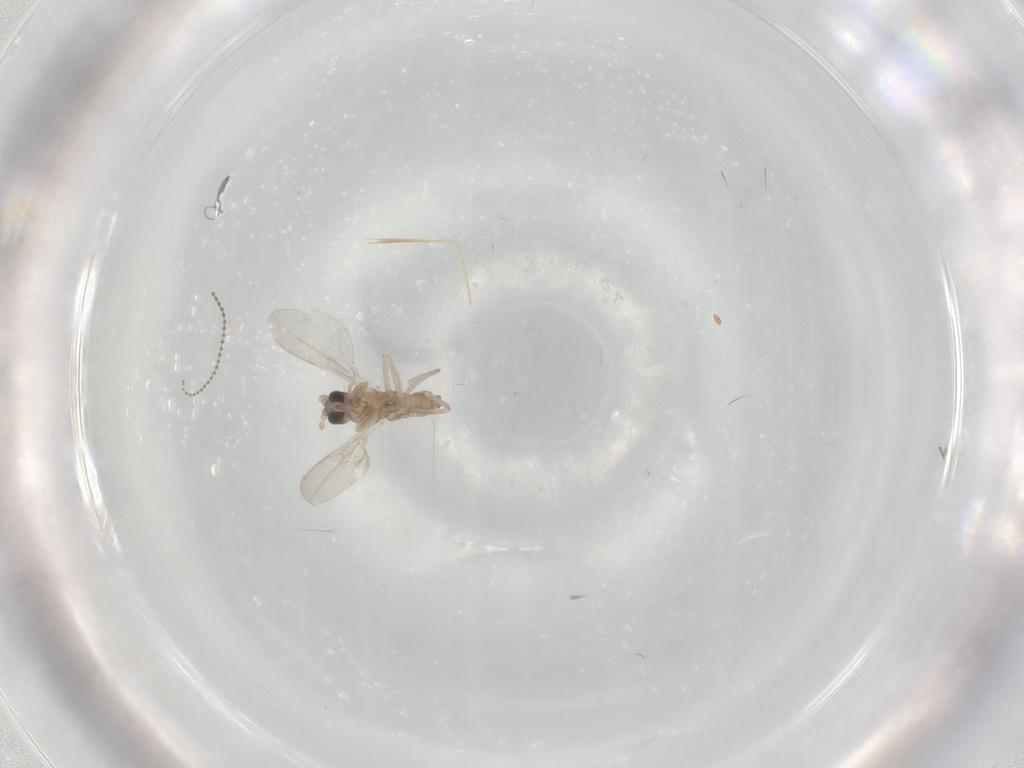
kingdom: Animalia
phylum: Arthropoda
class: Insecta
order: Diptera
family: Cecidomyiidae
